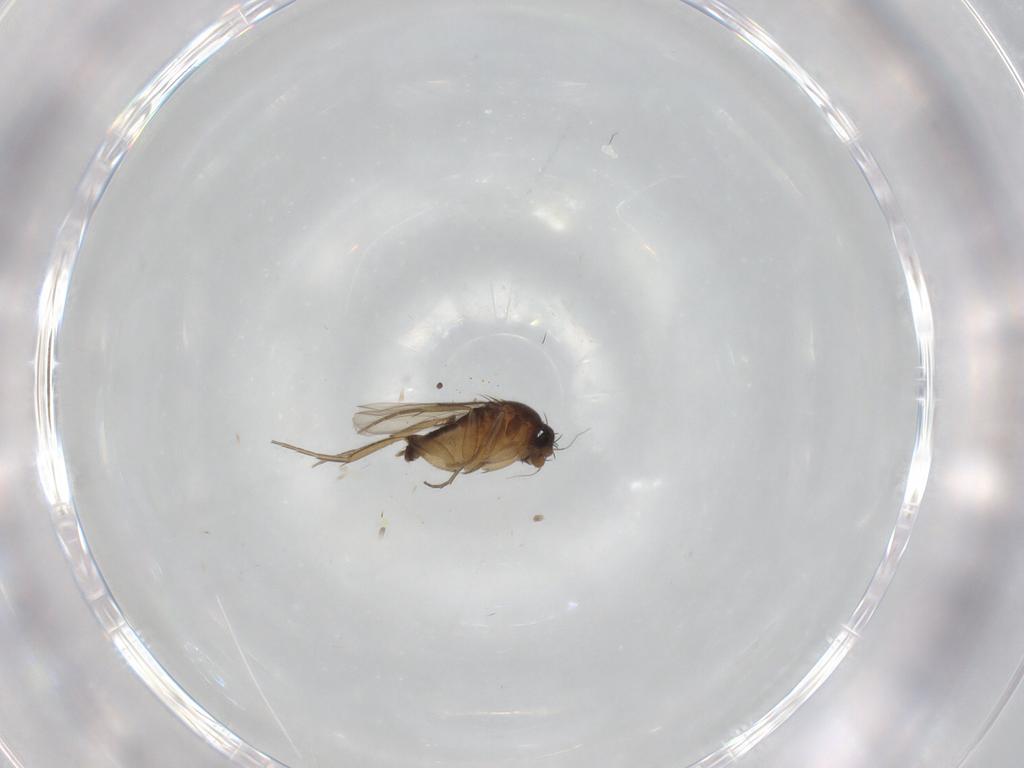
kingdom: Animalia
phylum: Arthropoda
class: Insecta
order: Diptera
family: Phoridae
